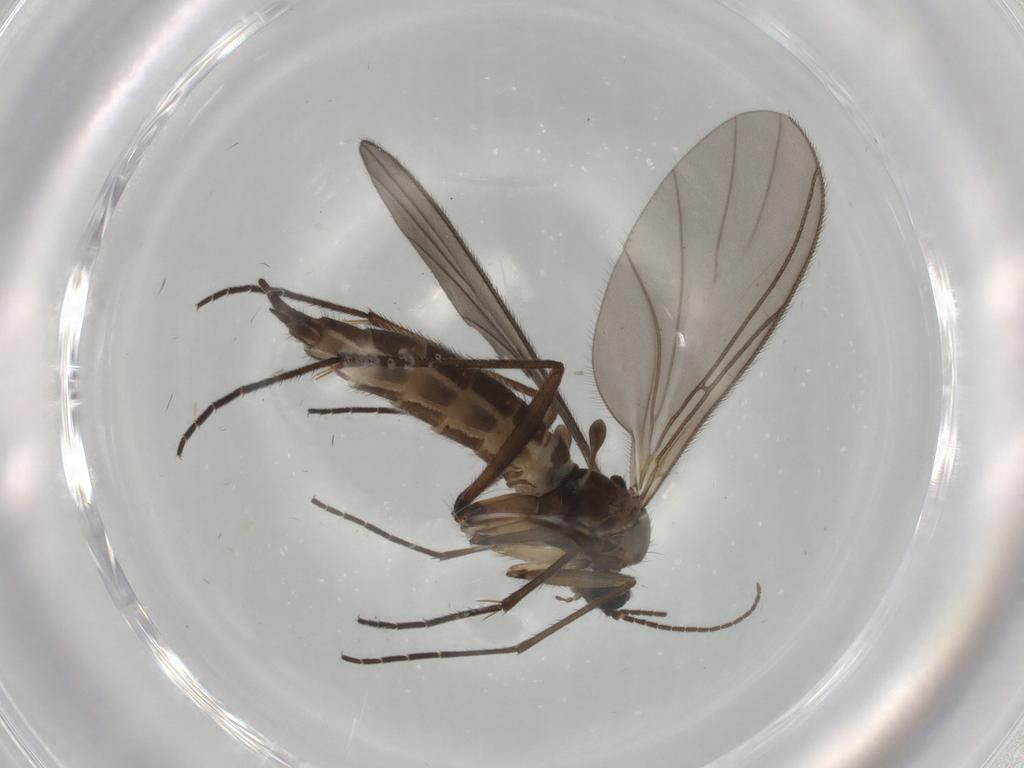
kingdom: Animalia
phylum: Arthropoda
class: Insecta
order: Diptera
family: Sciaridae
